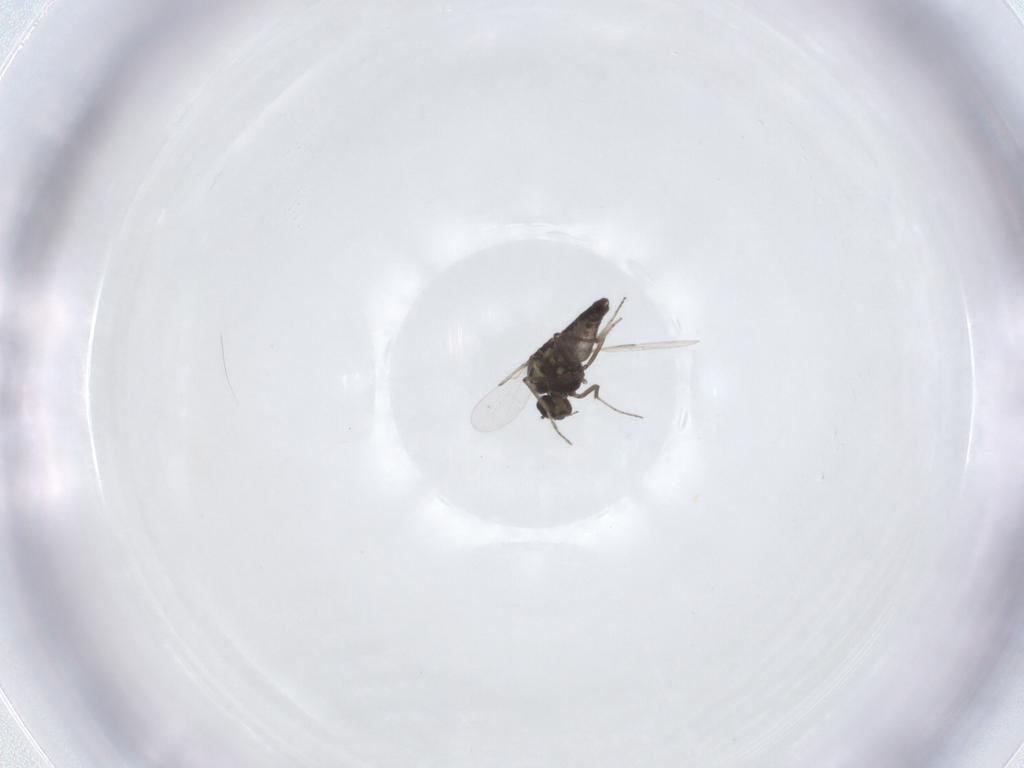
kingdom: Animalia
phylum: Arthropoda
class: Insecta
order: Diptera
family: Ceratopogonidae
